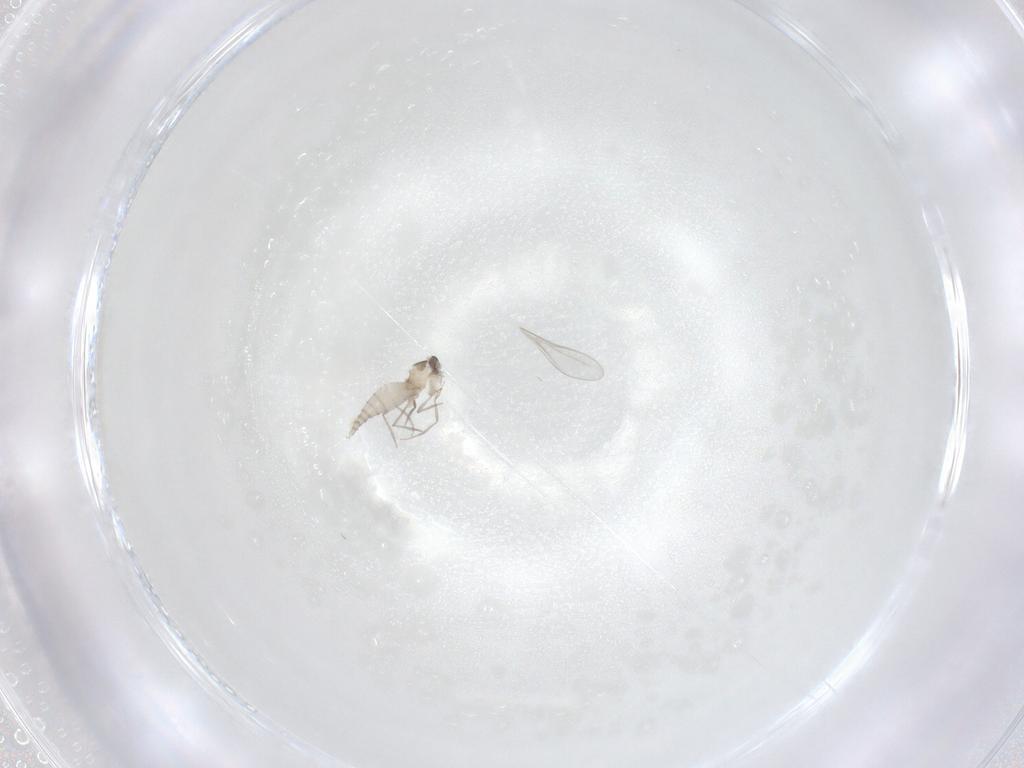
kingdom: Animalia
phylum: Arthropoda
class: Insecta
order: Diptera
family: Cecidomyiidae
